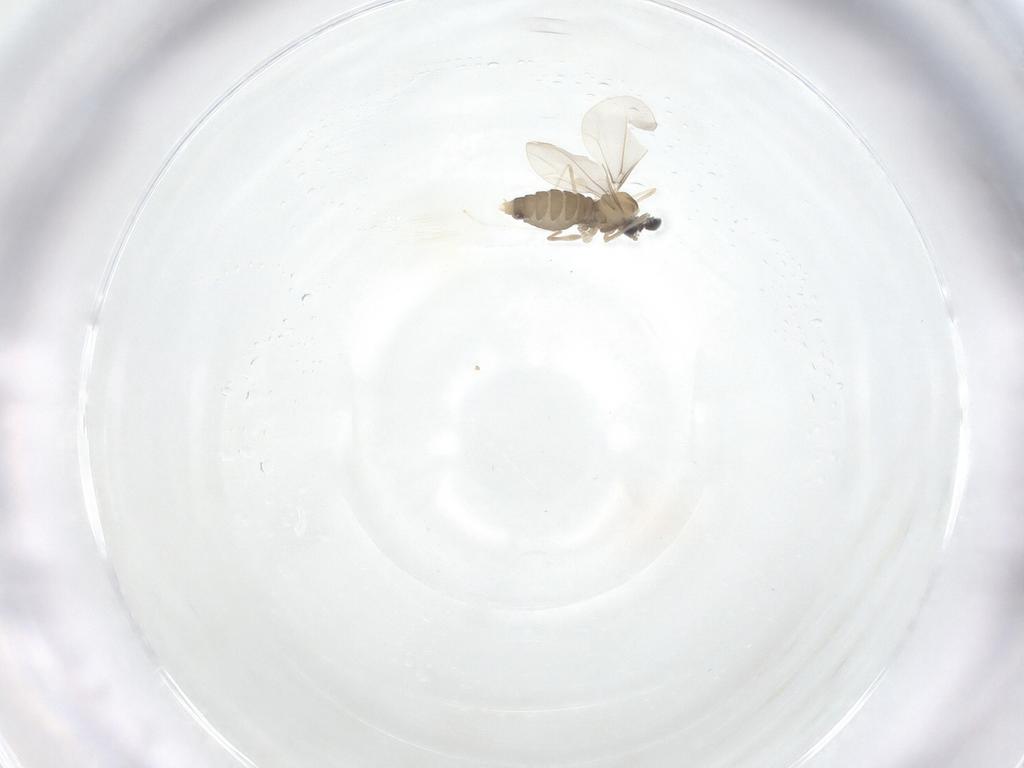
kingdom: Animalia
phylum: Arthropoda
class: Insecta
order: Diptera
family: Cecidomyiidae
